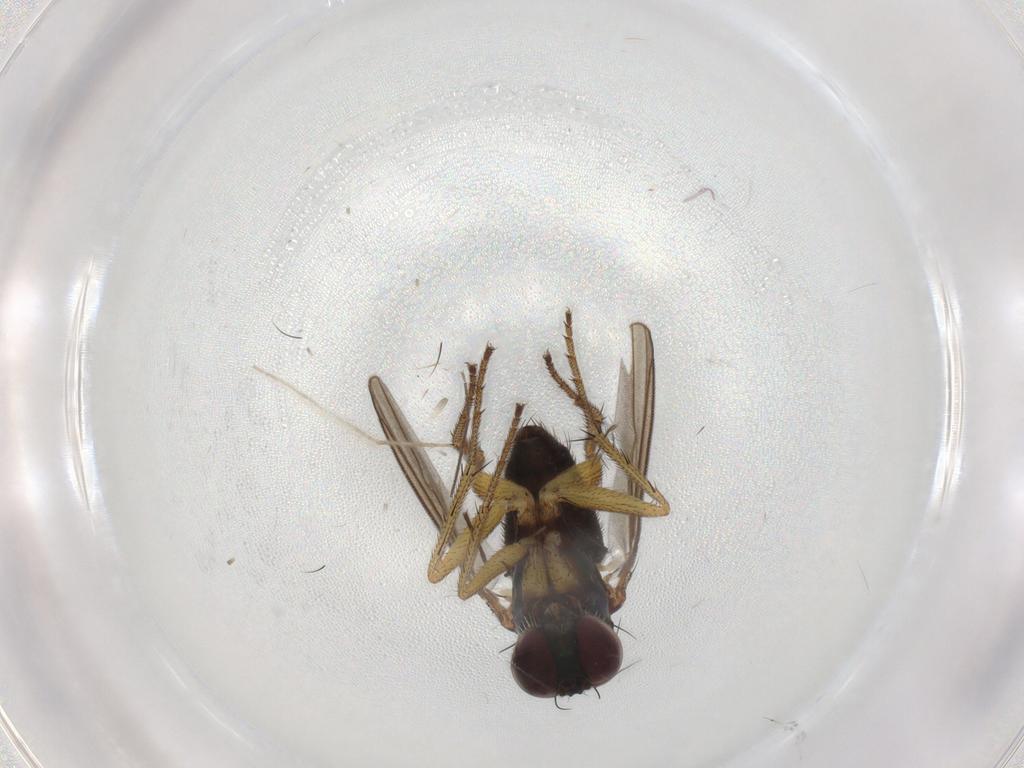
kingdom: Animalia
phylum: Arthropoda
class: Insecta
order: Diptera
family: Dolichopodidae
